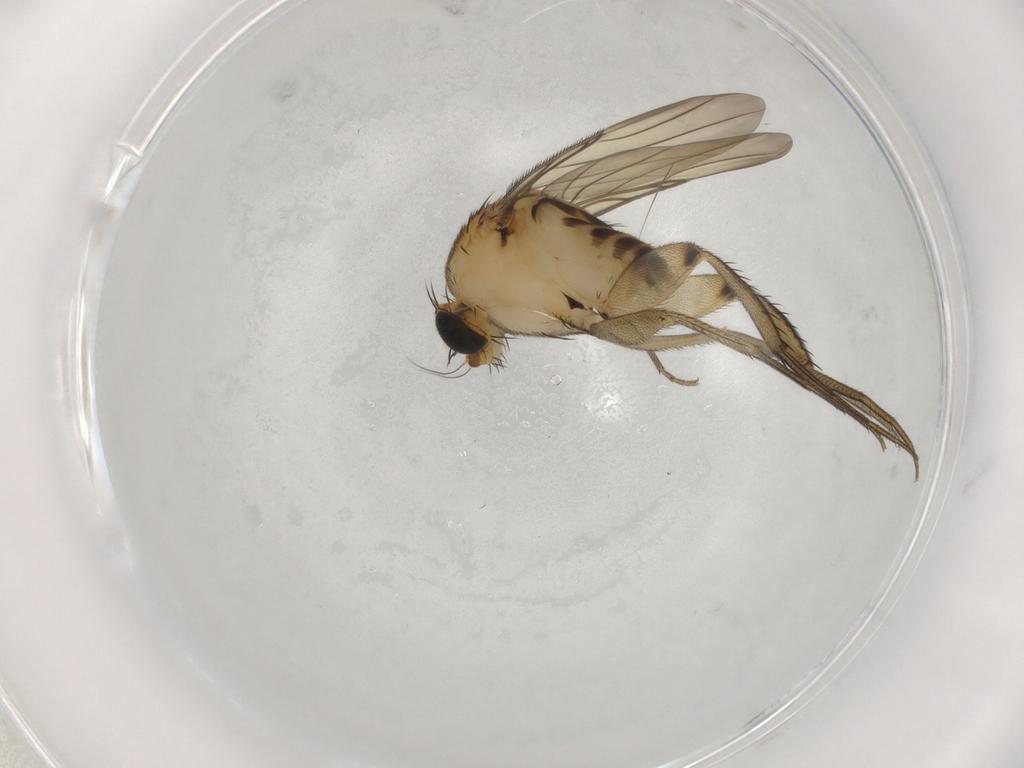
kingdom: Animalia
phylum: Arthropoda
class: Insecta
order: Diptera
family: Phoridae
